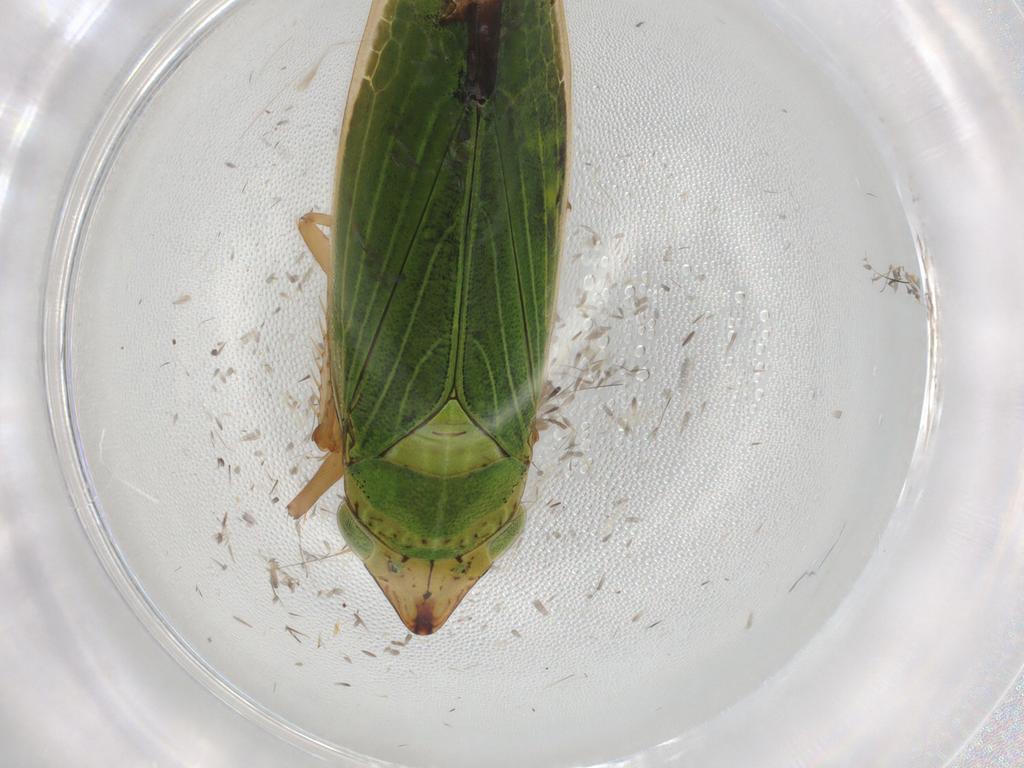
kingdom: Animalia
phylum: Arthropoda
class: Insecta
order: Hemiptera
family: Cicadellidae
